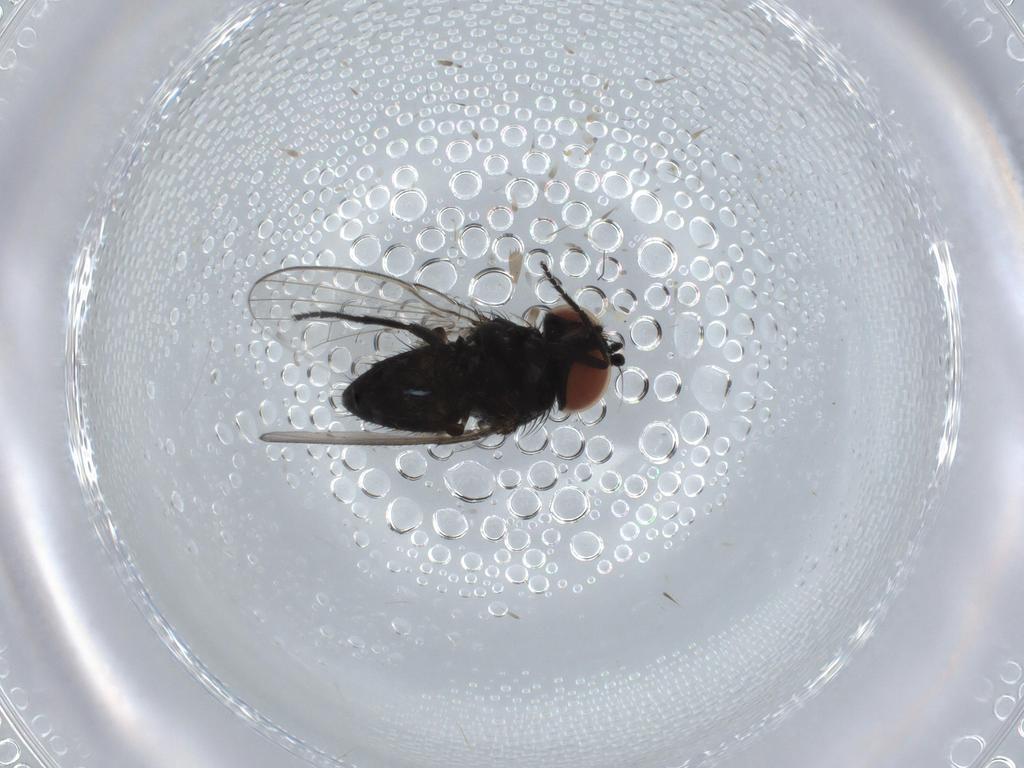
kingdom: Animalia
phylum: Arthropoda
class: Insecta
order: Diptera
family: Milichiidae
